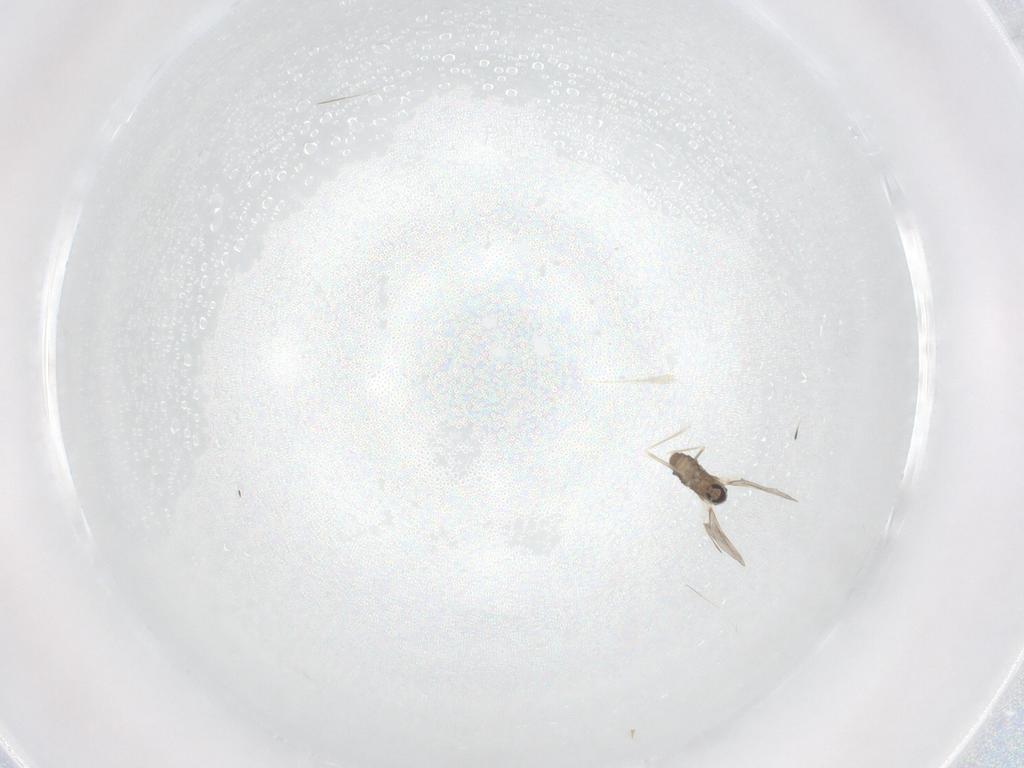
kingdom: Animalia
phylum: Arthropoda
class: Insecta
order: Diptera
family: Cecidomyiidae
